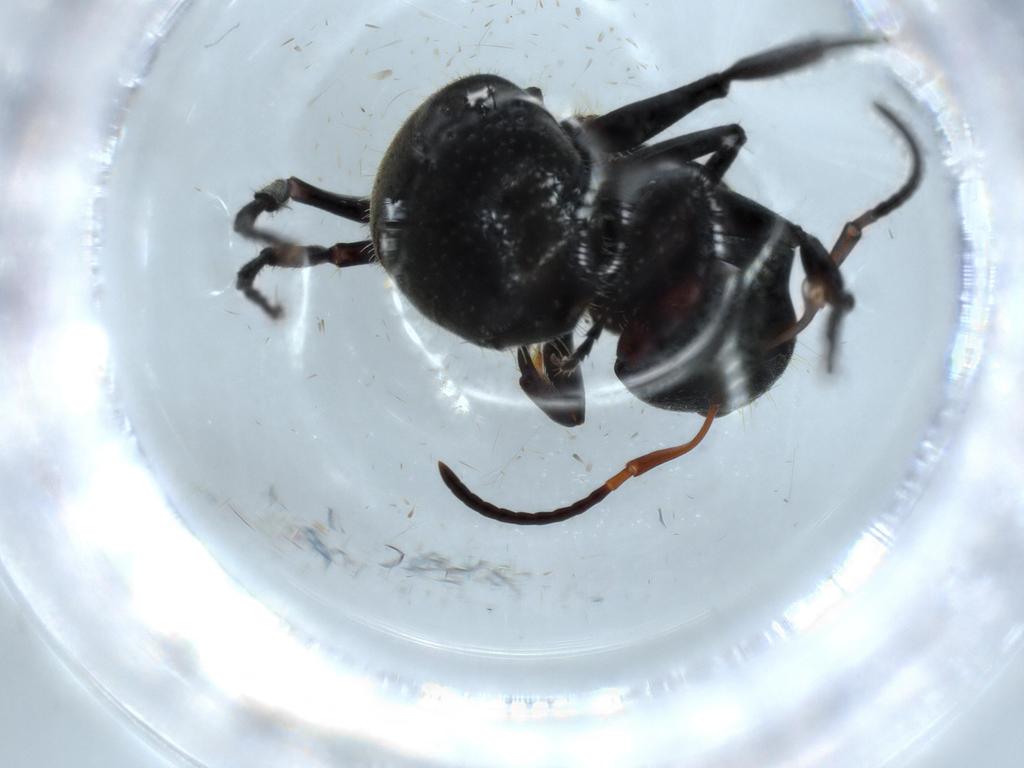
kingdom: Animalia
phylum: Arthropoda
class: Insecta
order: Hymenoptera
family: Formicidae
